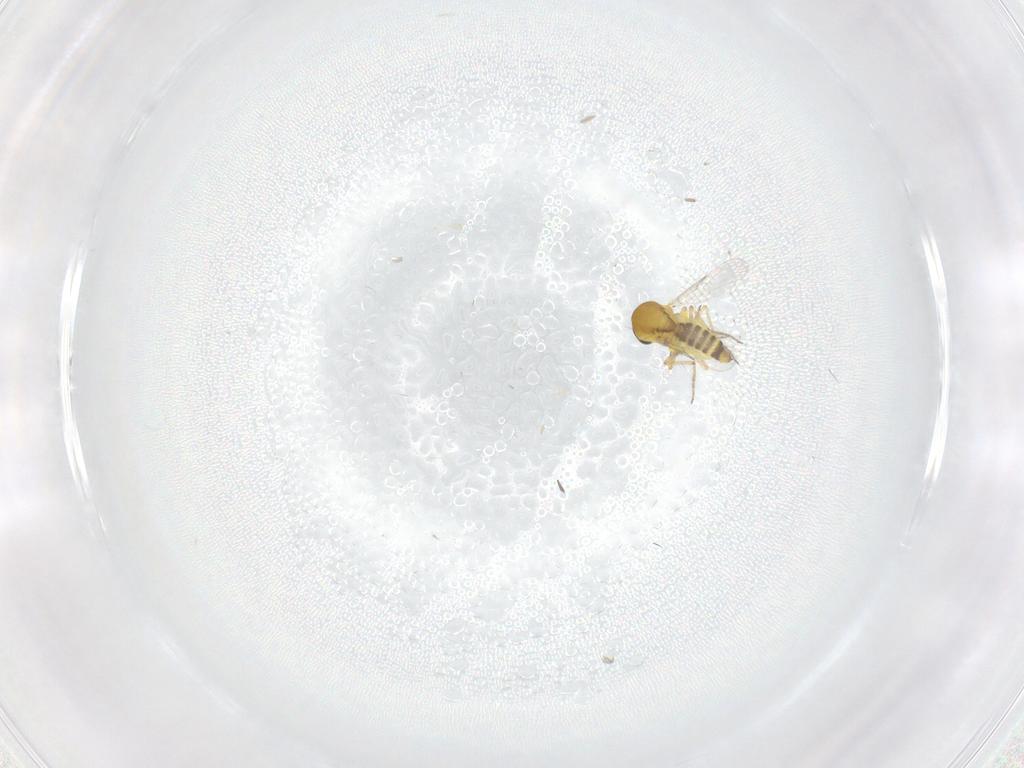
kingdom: Animalia
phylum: Arthropoda
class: Insecta
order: Diptera
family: Ceratopogonidae
